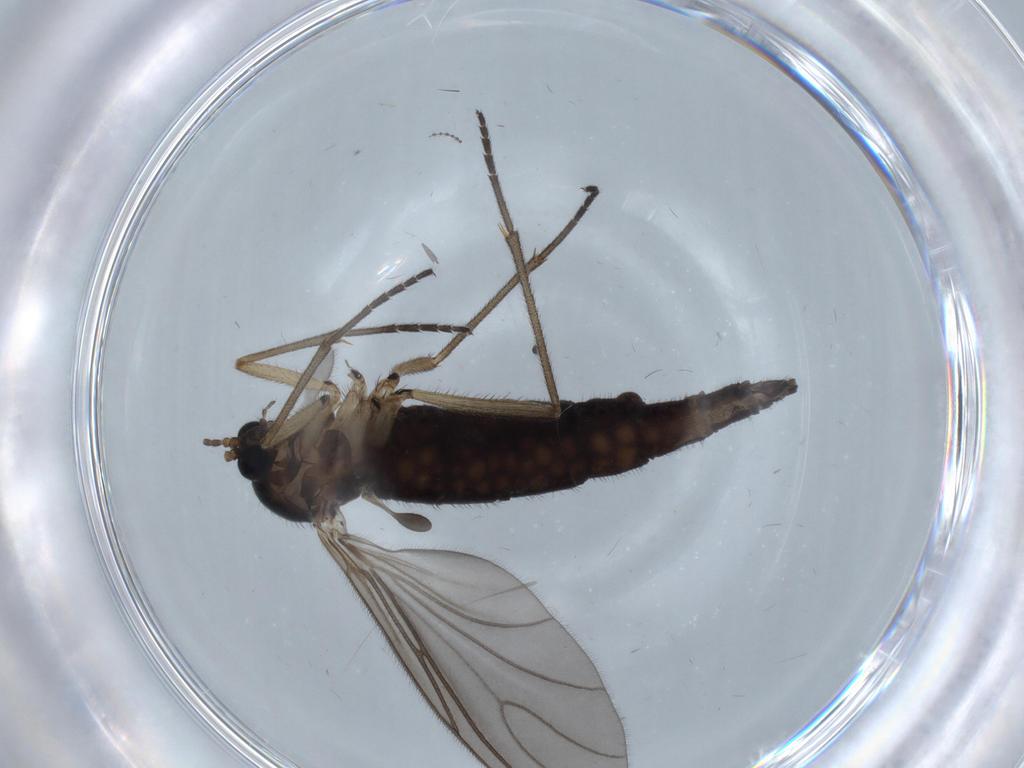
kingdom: Animalia
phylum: Arthropoda
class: Insecta
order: Diptera
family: Sciaridae
